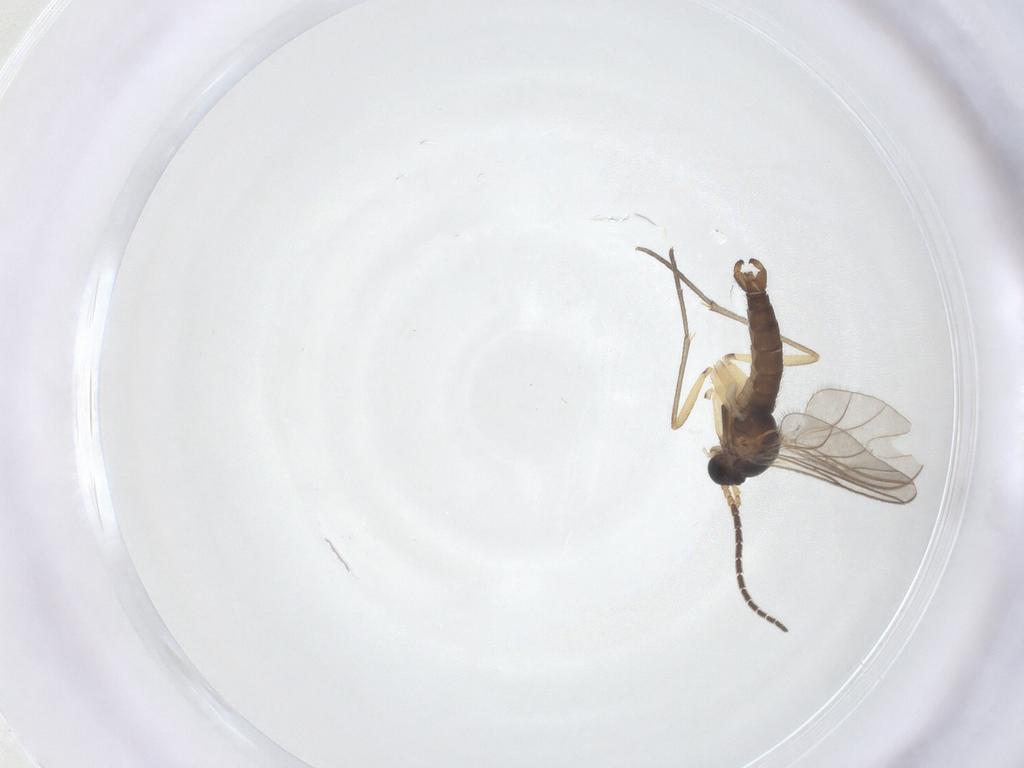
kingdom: Animalia
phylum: Arthropoda
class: Insecta
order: Diptera
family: Sciaridae
